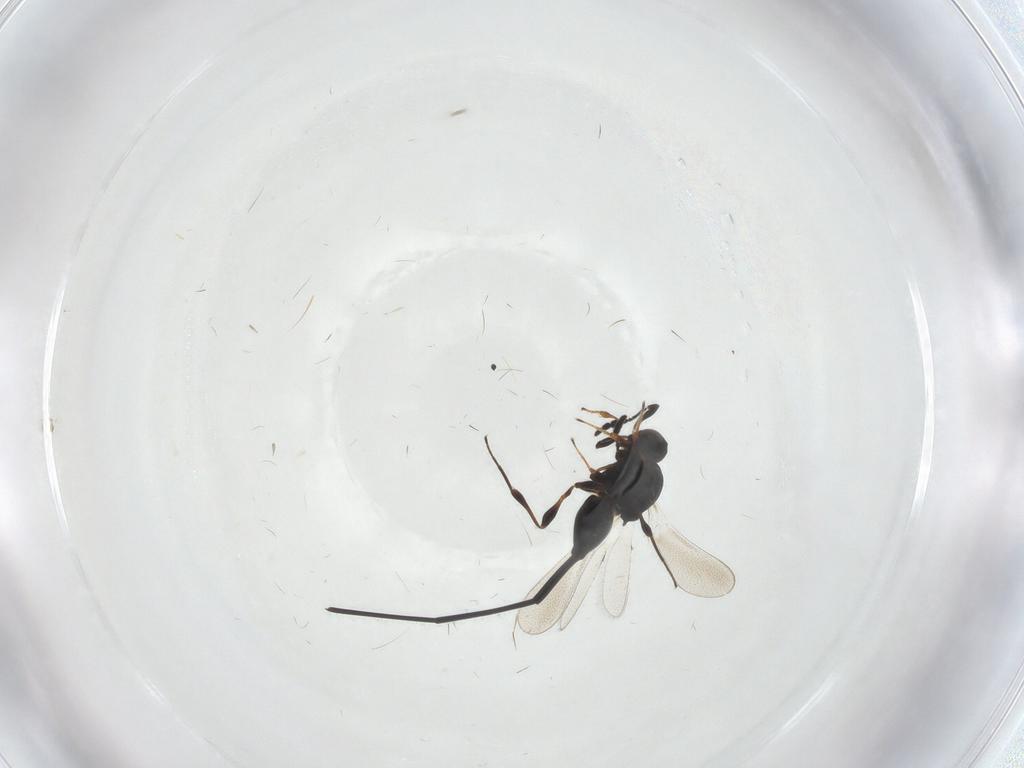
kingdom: Animalia
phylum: Arthropoda
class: Insecta
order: Hymenoptera
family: Platygastridae
